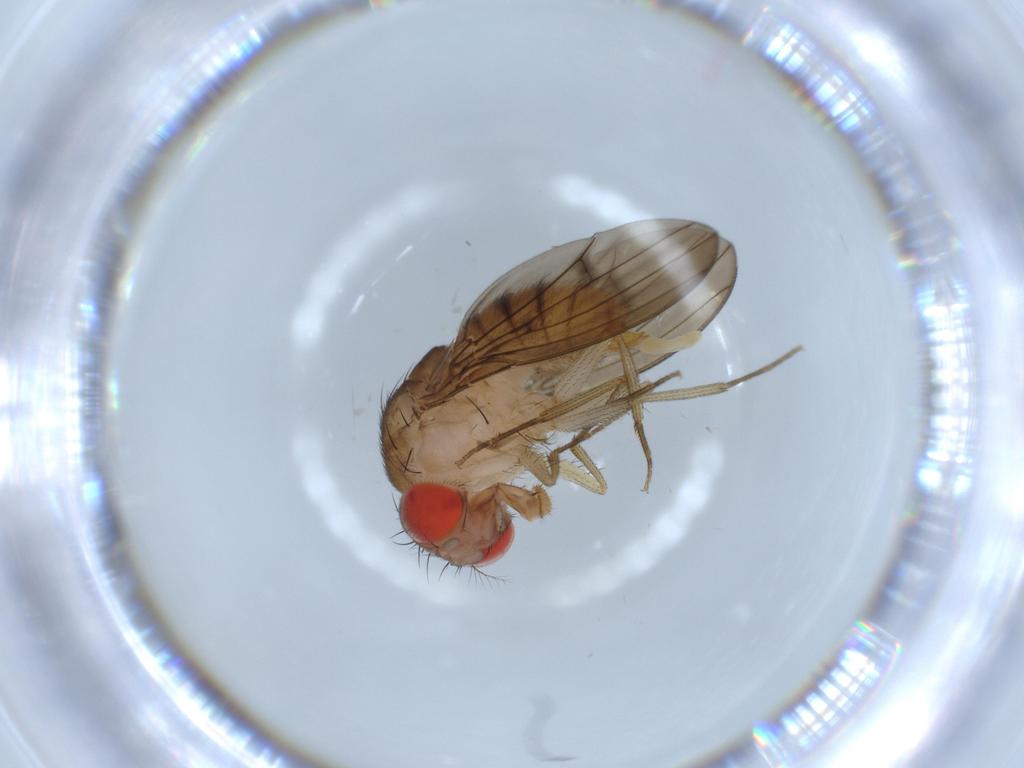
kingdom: Animalia
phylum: Arthropoda
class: Insecta
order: Diptera
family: Drosophilidae
